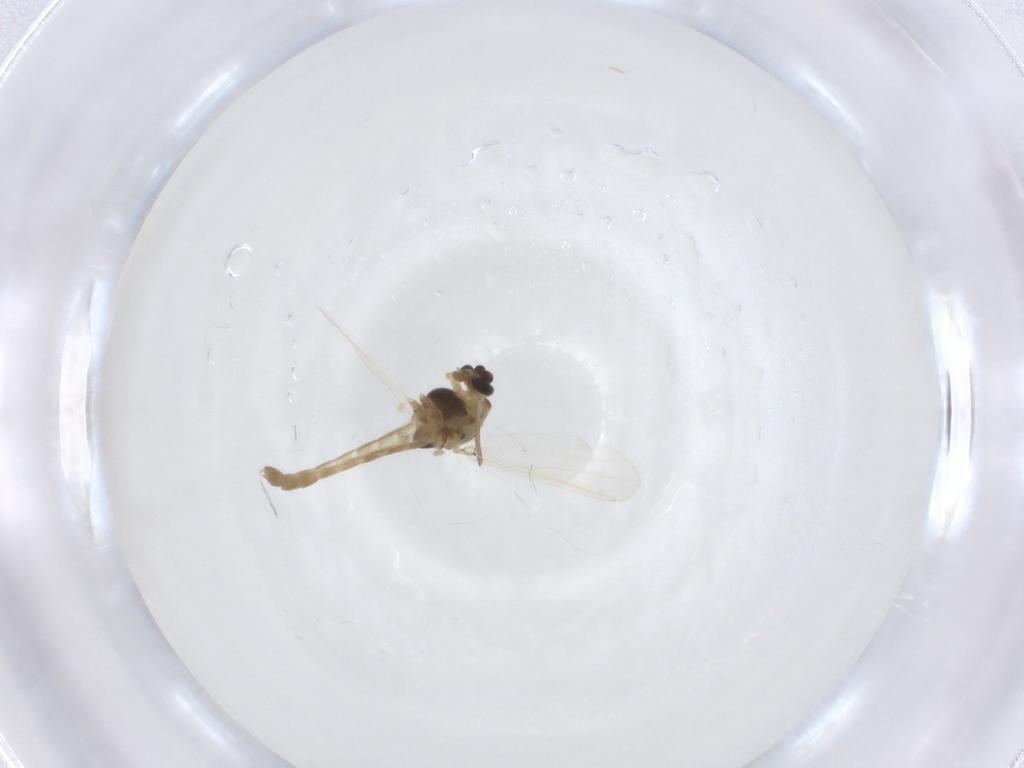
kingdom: Animalia
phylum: Arthropoda
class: Insecta
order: Diptera
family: Chironomidae
